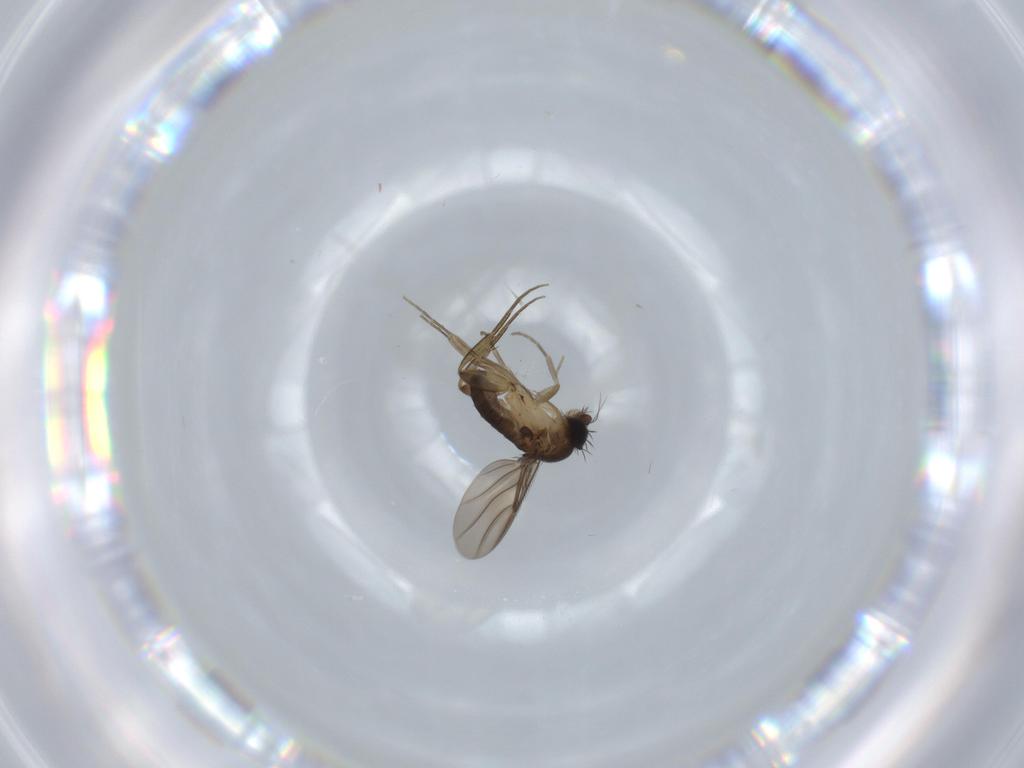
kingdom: Animalia
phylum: Arthropoda
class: Insecta
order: Diptera
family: Phoridae
